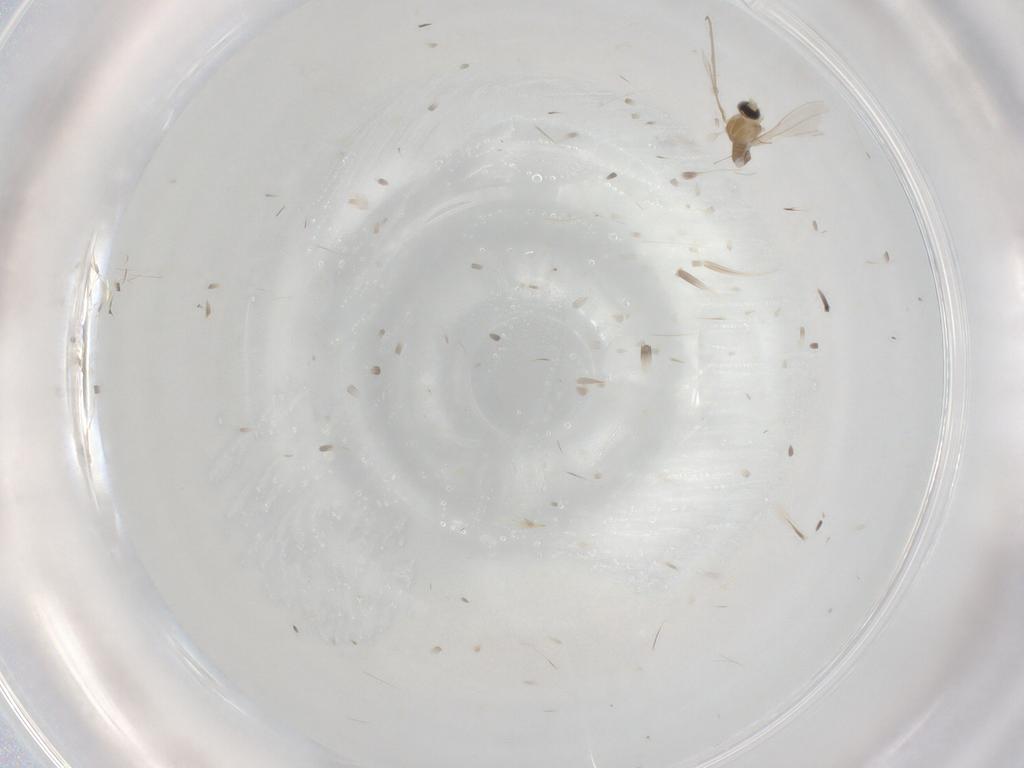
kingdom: Animalia
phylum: Arthropoda
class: Insecta
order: Diptera
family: Cecidomyiidae
